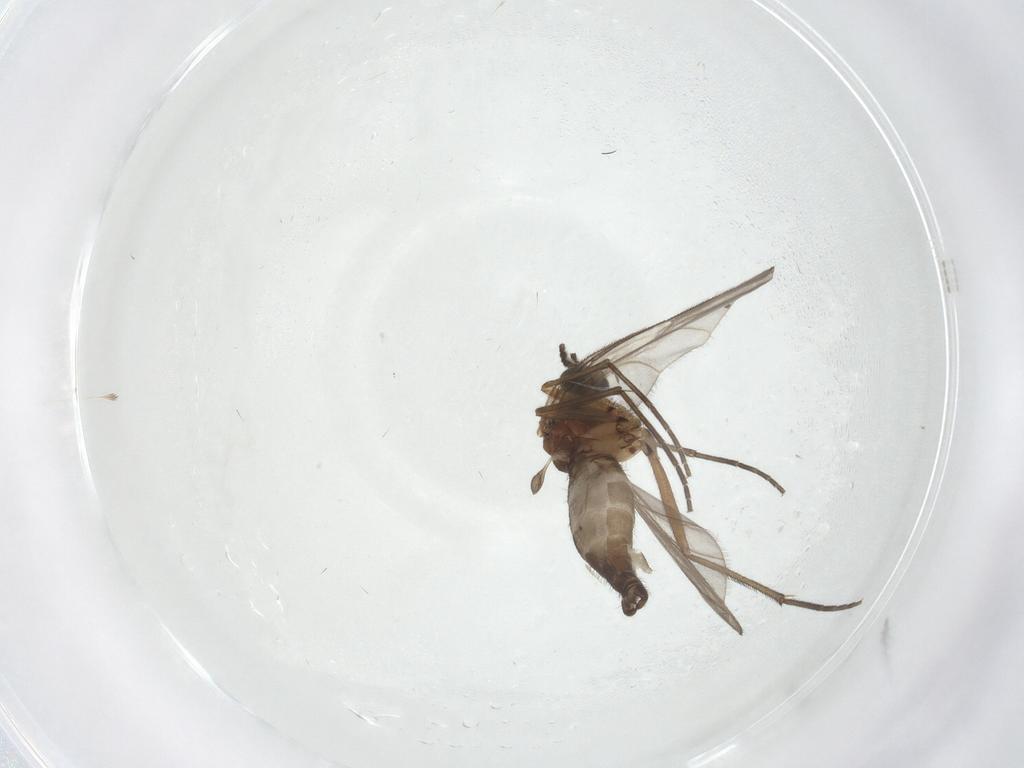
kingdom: Animalia
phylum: Arthropoda
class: Insecta
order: Diptera
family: Sciaridae
